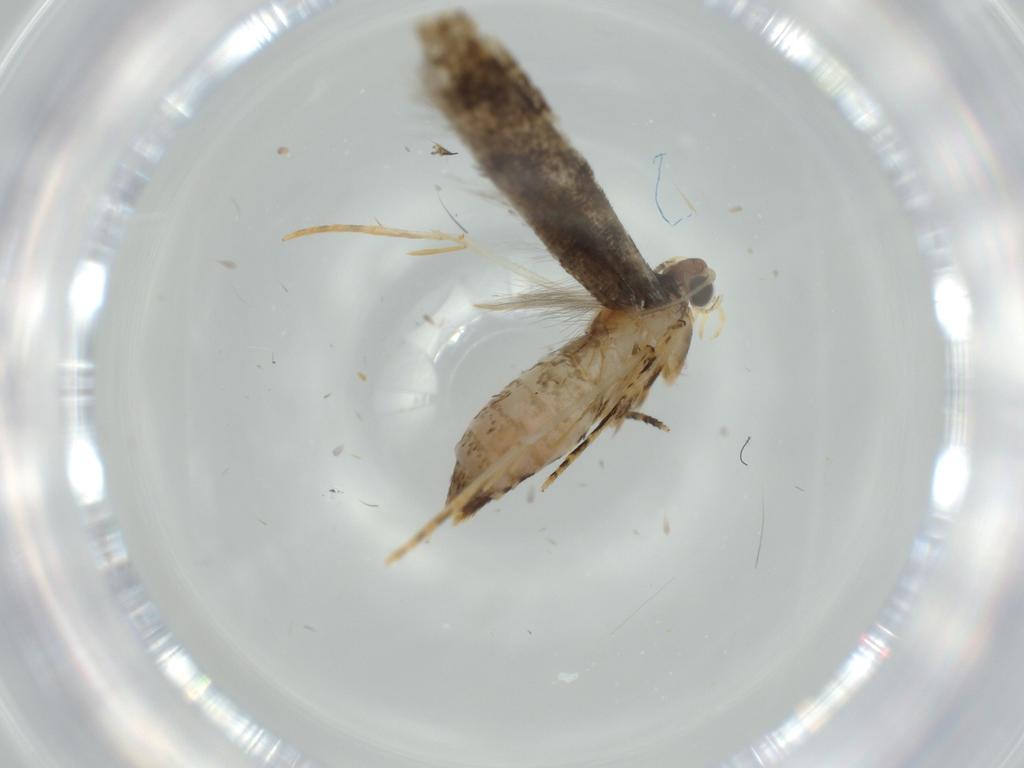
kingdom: Animalia
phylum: Arthropoda
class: Insecta
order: Lepidoptera
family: Tineidae
